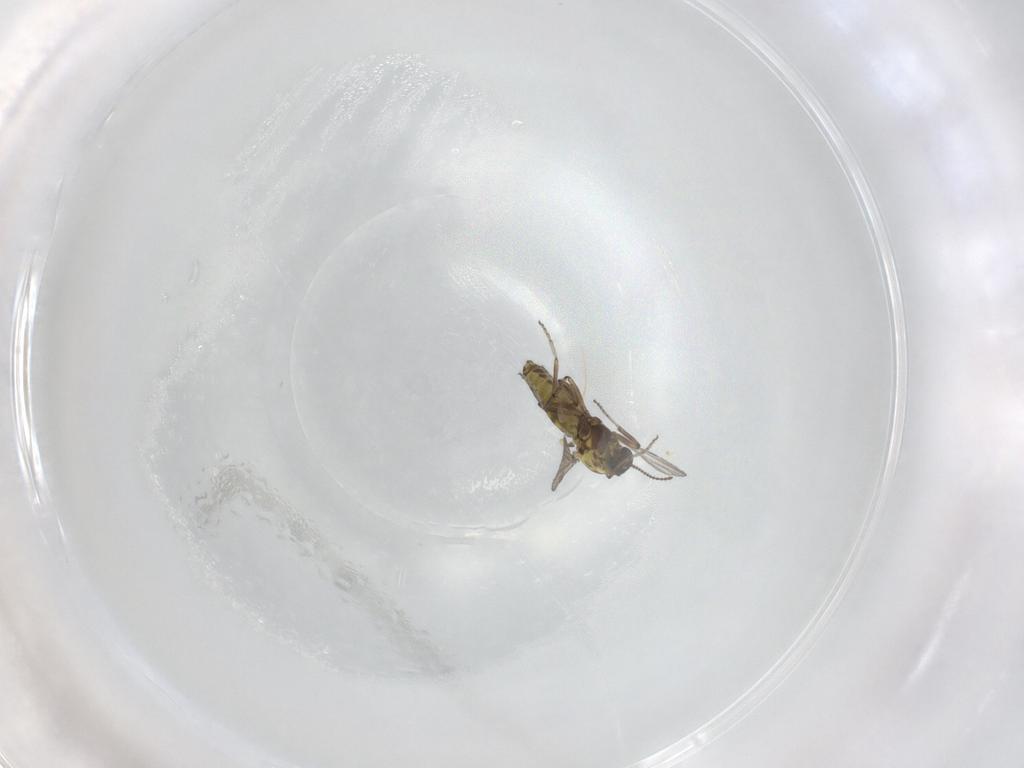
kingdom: Animalia
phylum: Arthropoda
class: Insecta
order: Diptera
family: Ceratopogonidae
